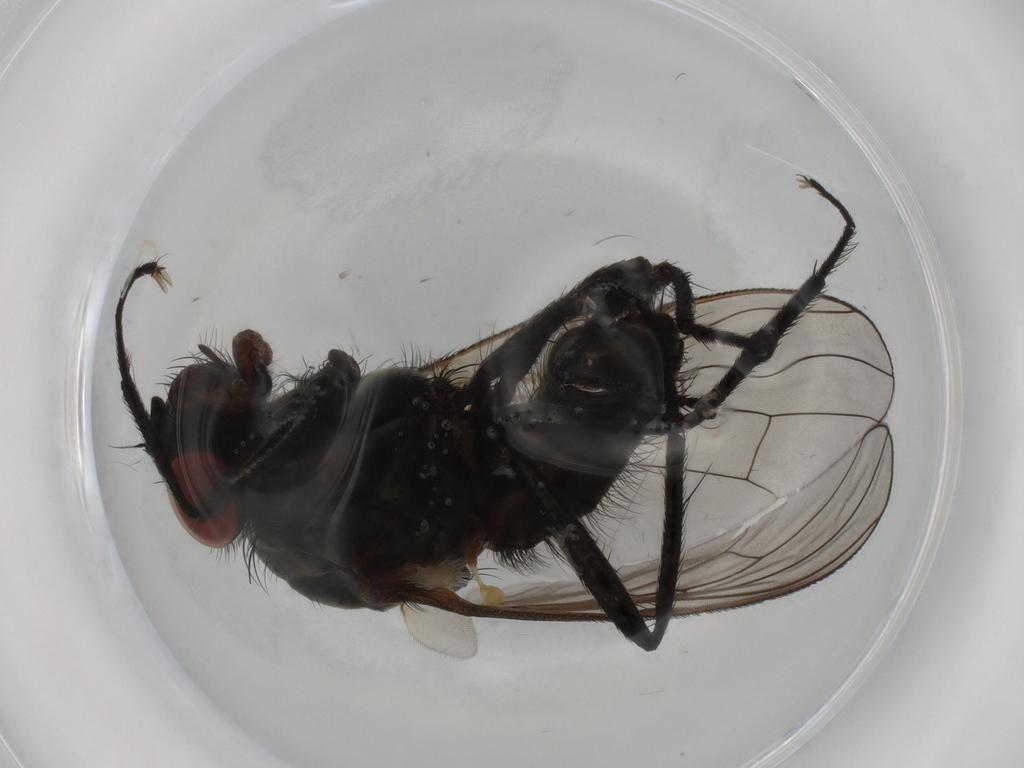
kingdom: Animalia
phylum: Arthropoda
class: Insecta
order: Diptera
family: Anthomyiidae
